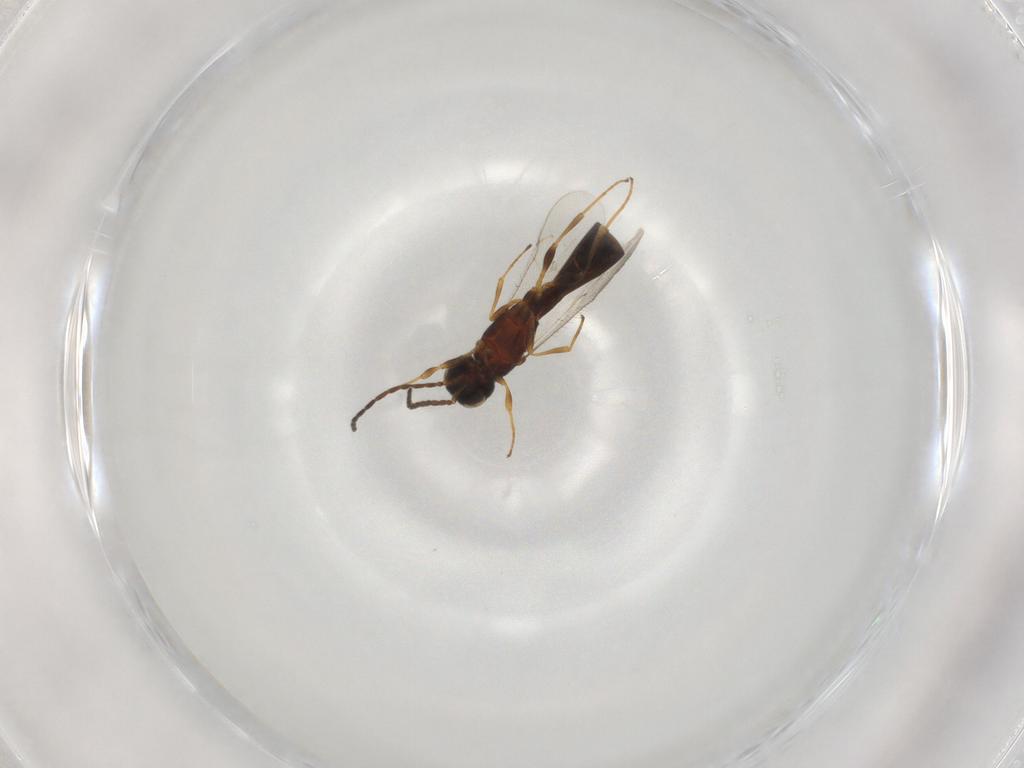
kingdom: Animalia
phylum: Arthropoda
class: Insecta
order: Hymenoptera
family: Scelionidae
